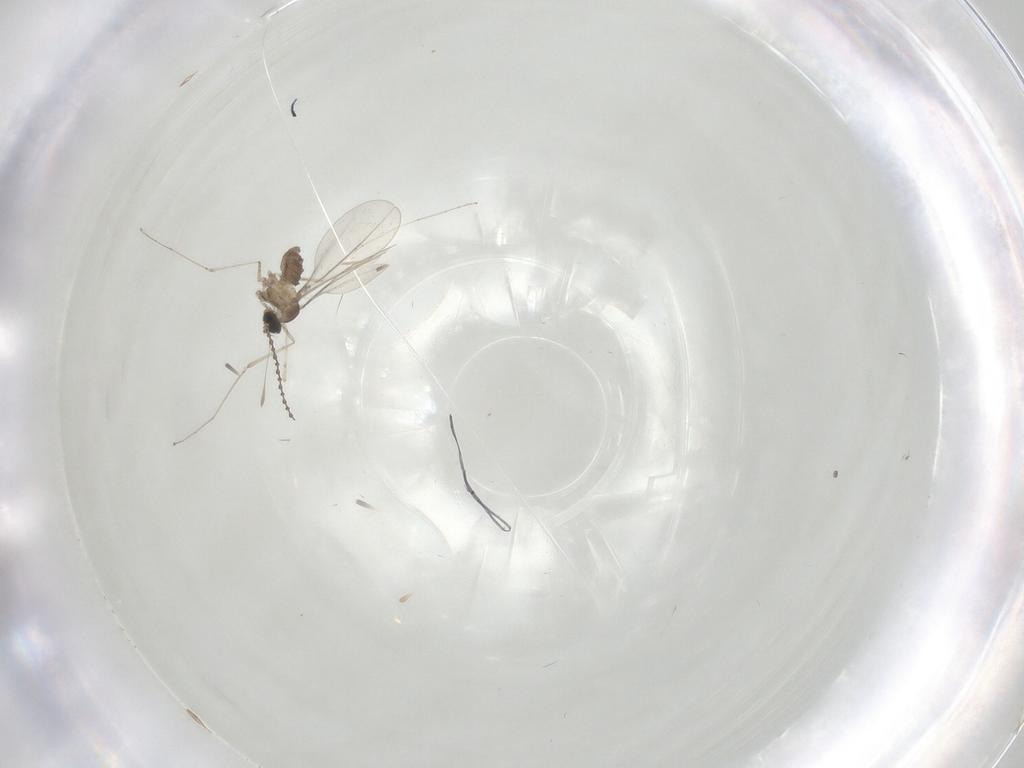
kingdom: Animalia
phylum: Arthropoda
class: Insecta
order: Diptera
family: Cecidomyiidae
